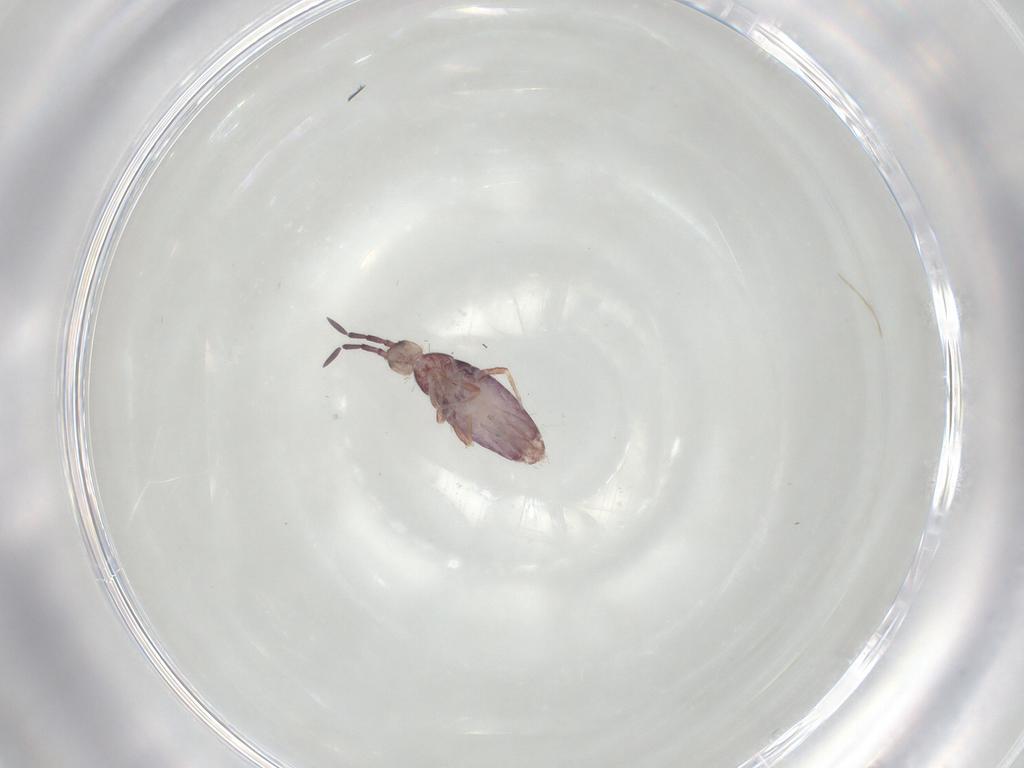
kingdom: Animalia
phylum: Arthropoda
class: Collembola
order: Entomobryomorpha
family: Entomobryidae
